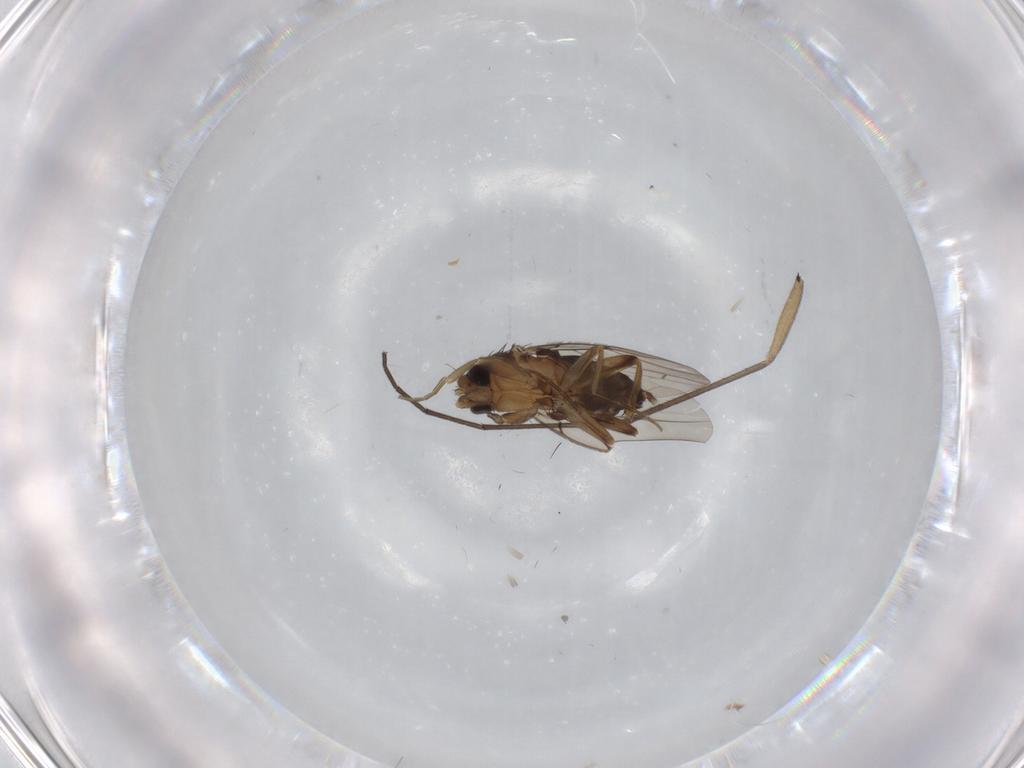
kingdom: Animalia
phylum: Arthropoda
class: Insecta
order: Diptera
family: Phoridae
